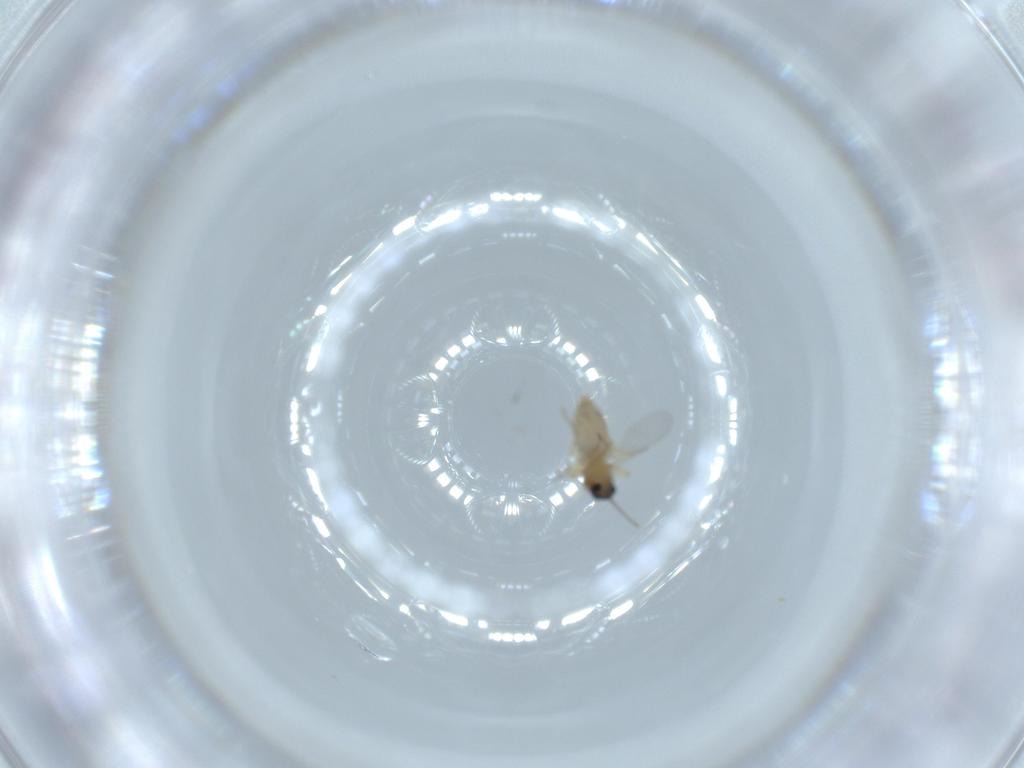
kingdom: Animalia
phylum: Arthropoda
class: Insecta
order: Diptera
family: Ceratopogonidae
